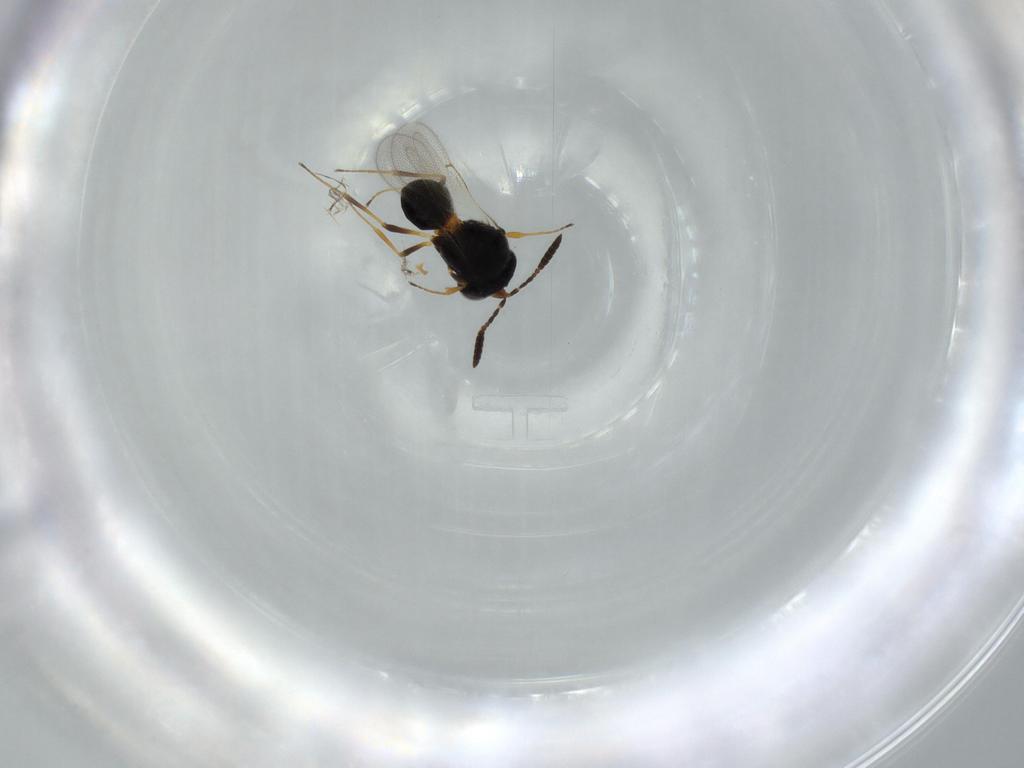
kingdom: Animalia
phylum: Arthropoda
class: Insecta
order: Hymenoptera
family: Scelionidae
